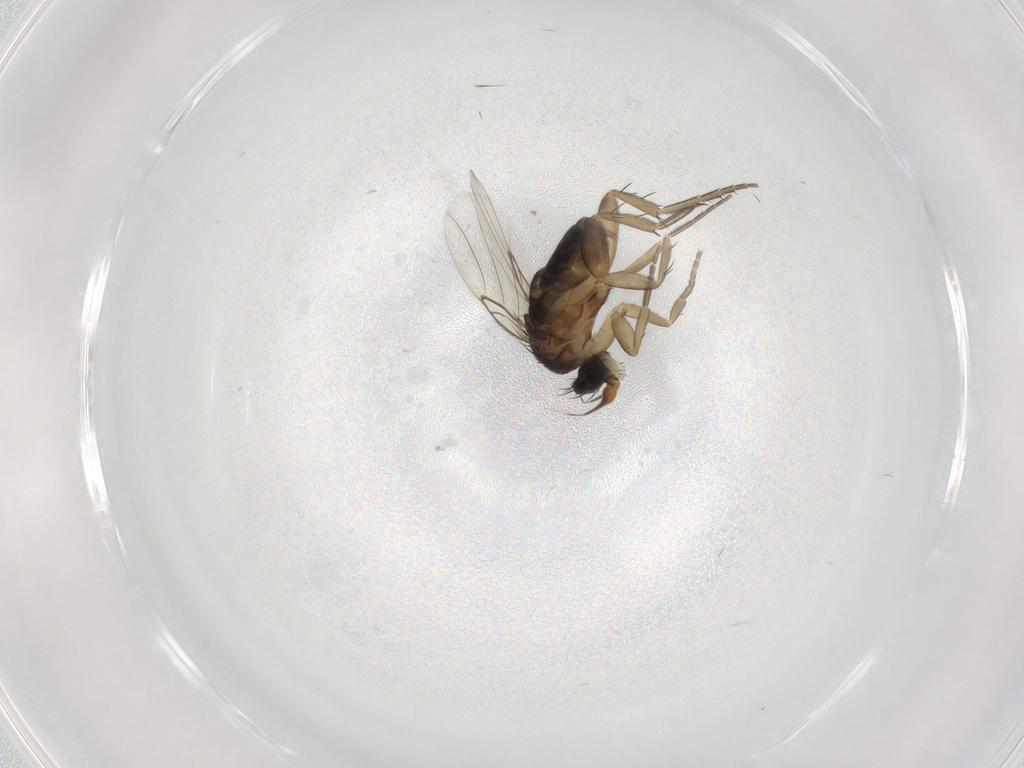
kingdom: Animalia
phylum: Arthropoda
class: Insecta
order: Diptera
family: Phoridae
